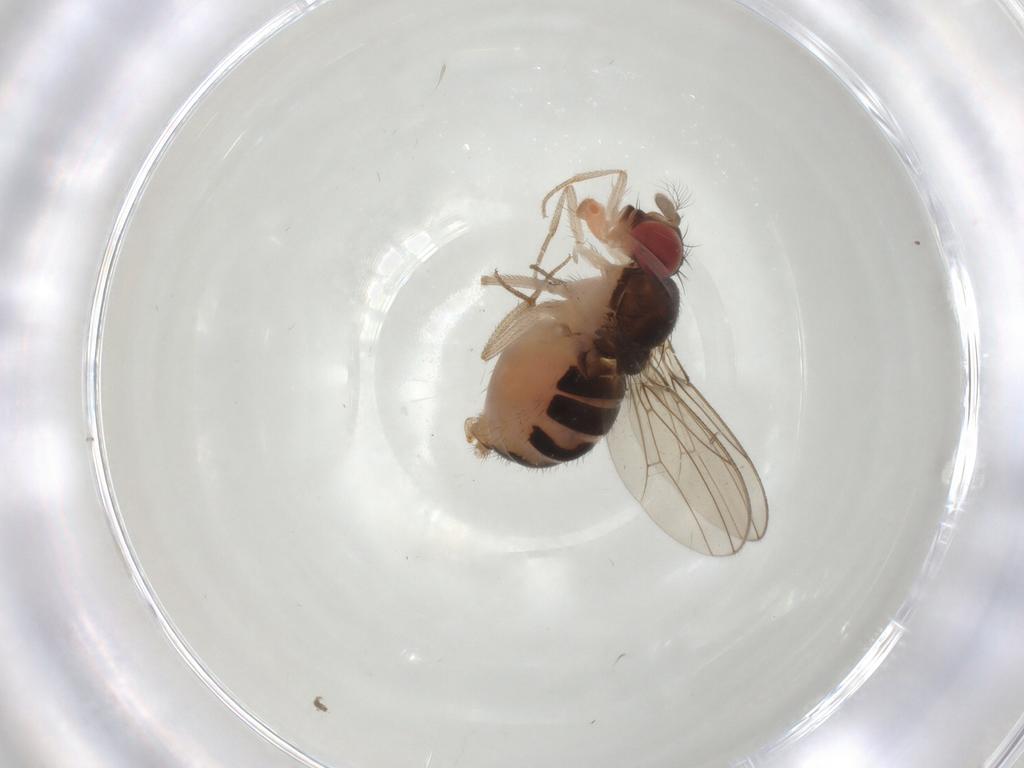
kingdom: Animalia
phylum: Arthropoda
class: Insecta
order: Diptera
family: Drosophilidae
